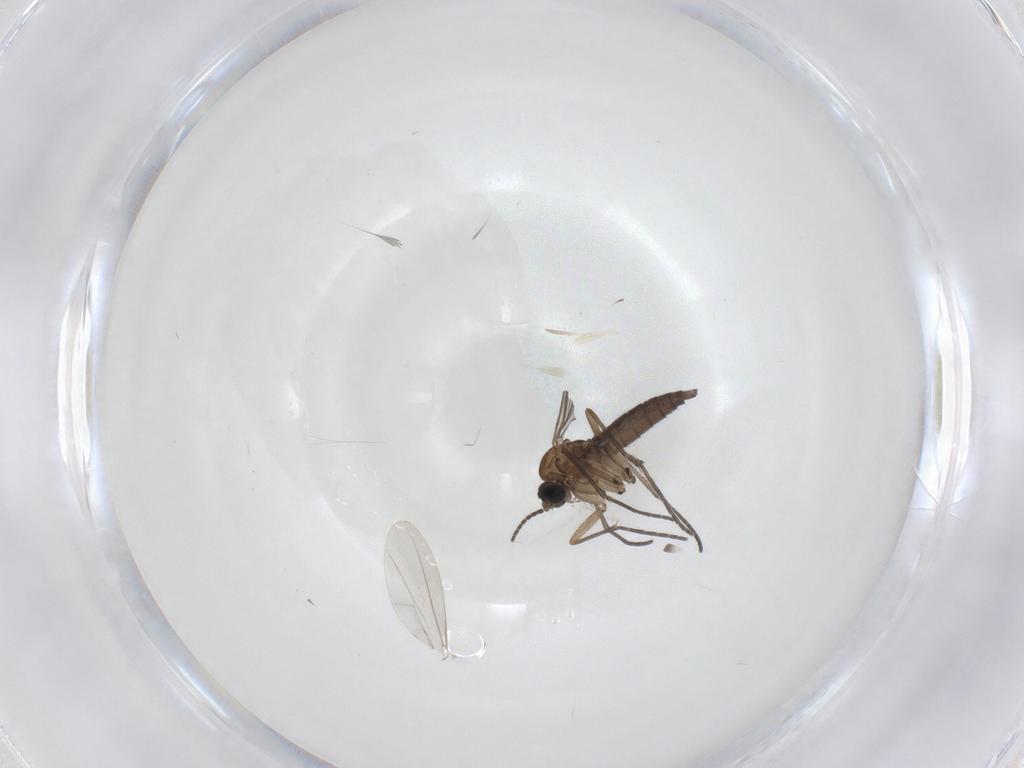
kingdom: Animalia
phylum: Arthropoda
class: Insecta
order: Diptera
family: Sciaridae
